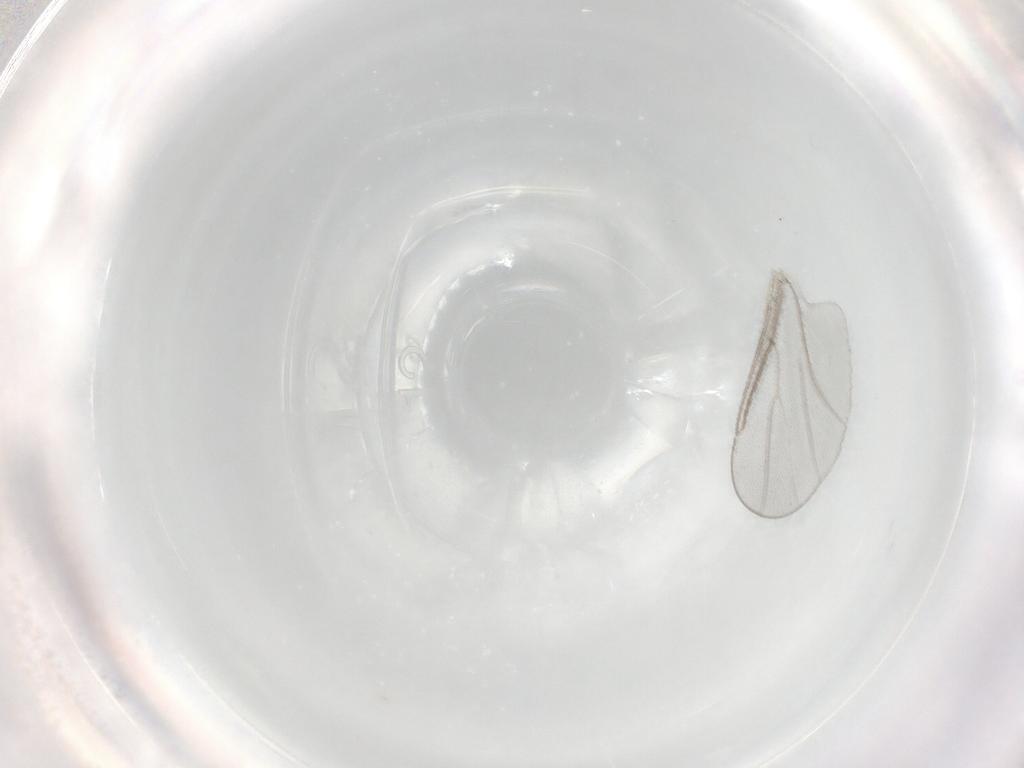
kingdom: Animalia
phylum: Arthropoda
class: Insecta
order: Diptera
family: Cecidomyiidae
